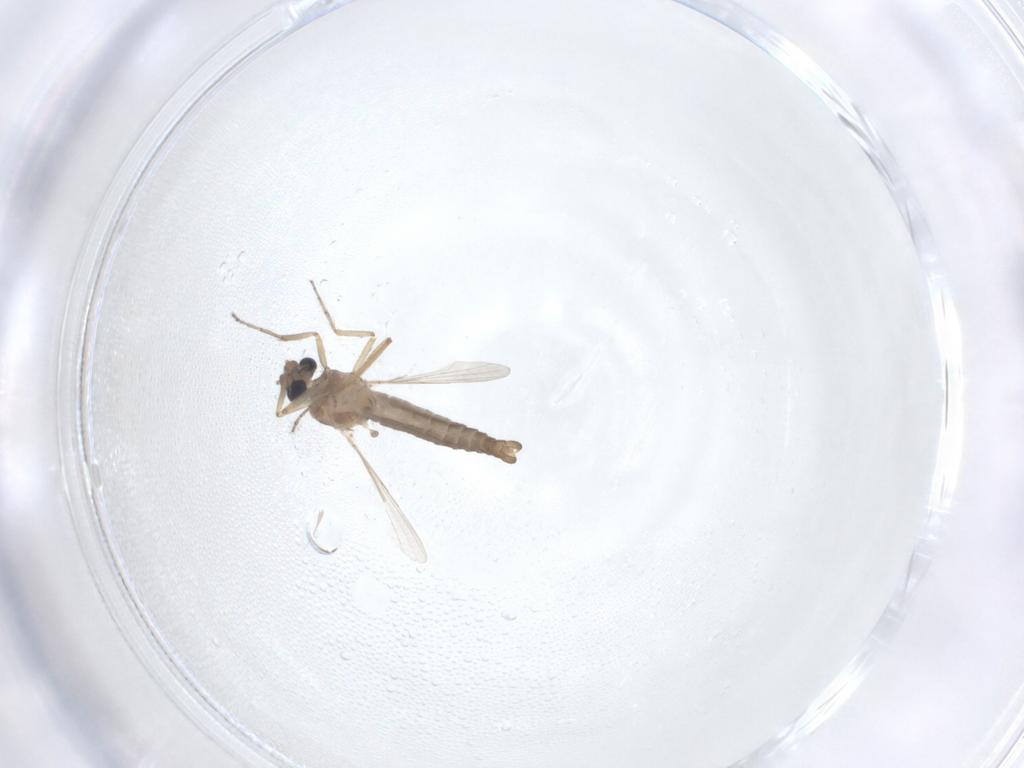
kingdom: Animalia
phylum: Arthropoda
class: Insecta
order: Diptera
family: Ceratopogonidae
